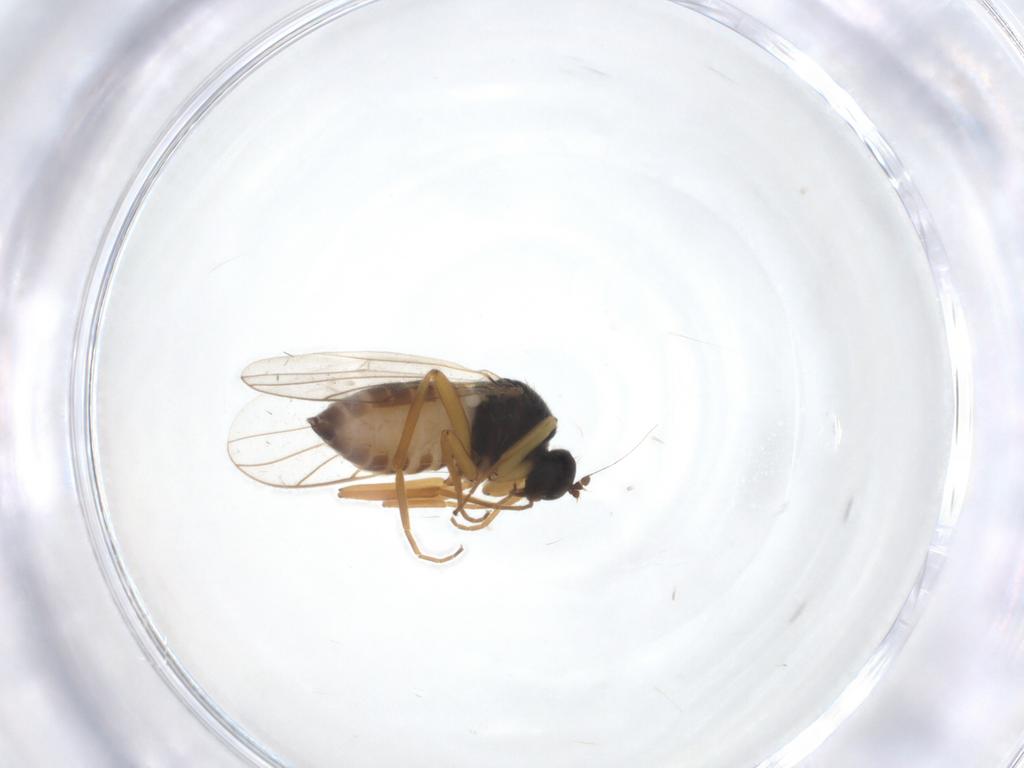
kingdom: Animalia
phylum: Arthropoda
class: Insecta
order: Diptera
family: Hybotidae
